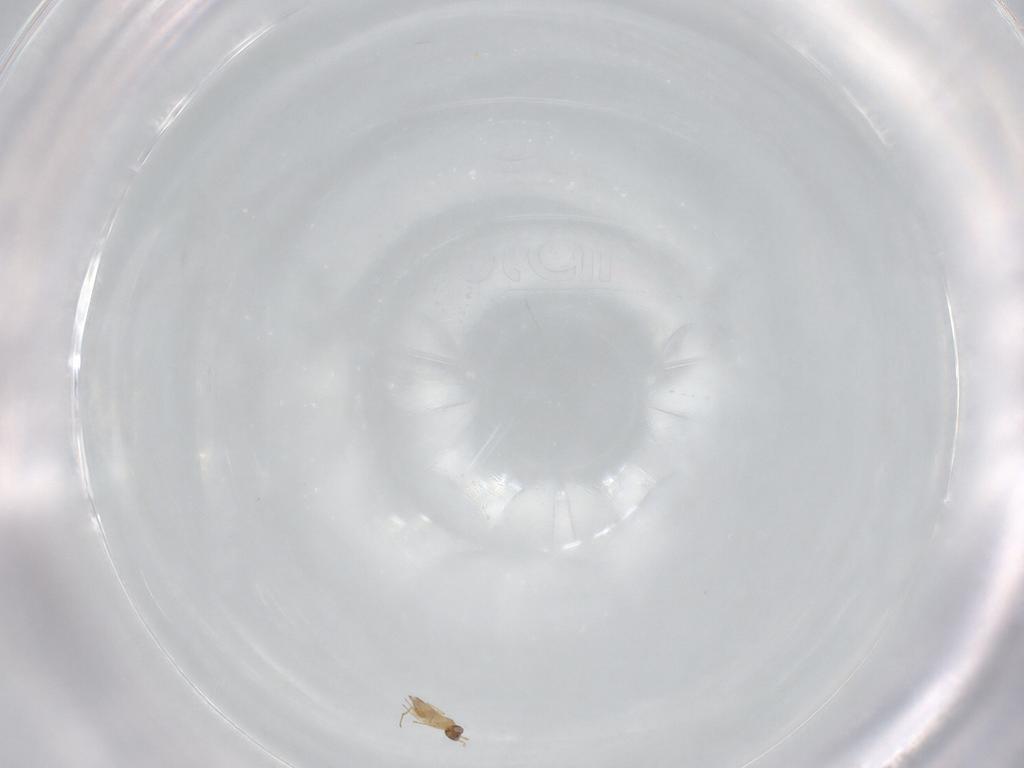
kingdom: Animalia
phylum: Arthropoda
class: Insecta
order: Hymenoptera
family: Mymaridae
